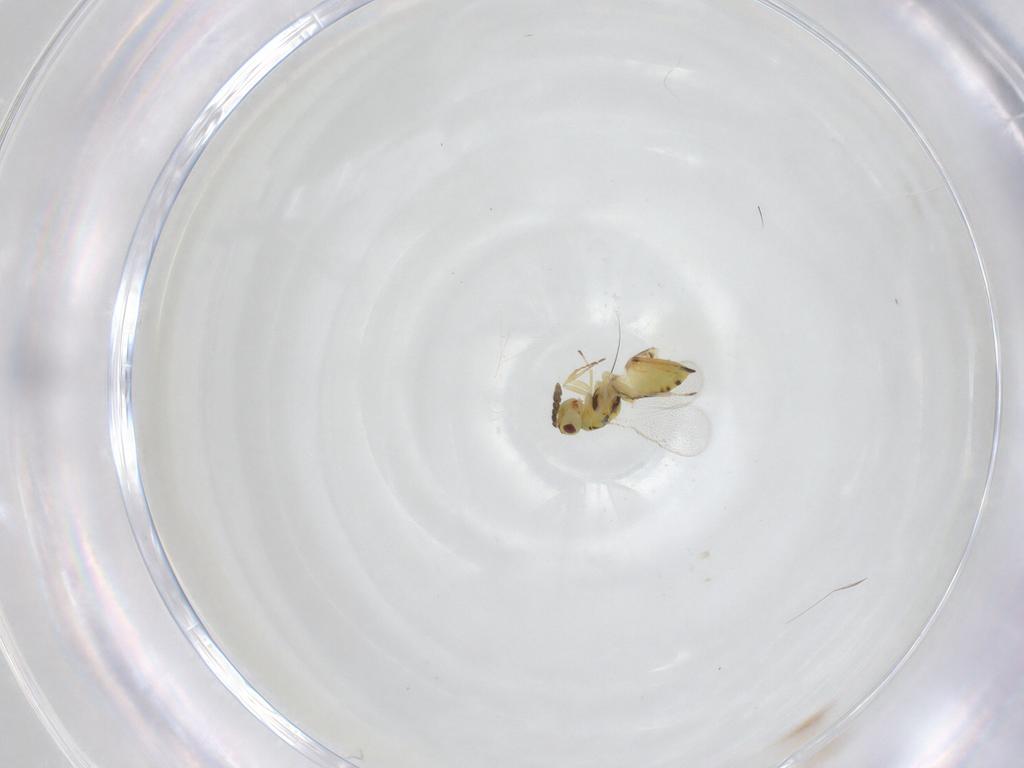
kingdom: Animalia
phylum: Arthropoda
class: Insecta
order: Hymenoptera
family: Eulophidae
